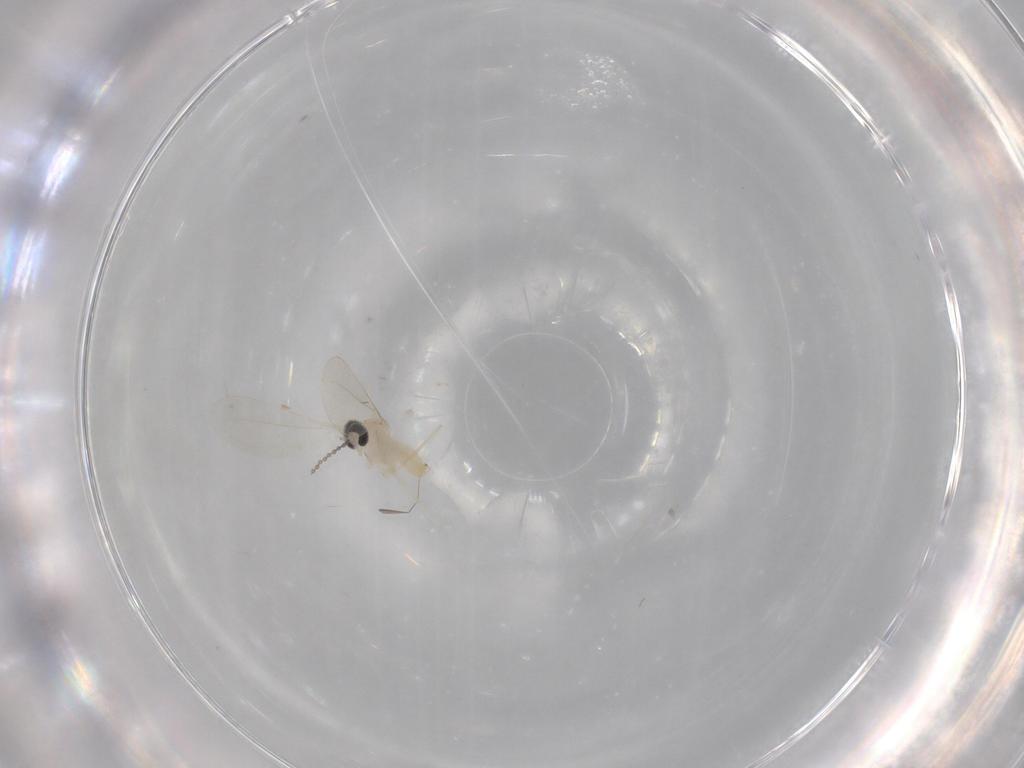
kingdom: Animalia
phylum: Arthropoda
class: Insecta
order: Diptera
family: Cecidomyiidae
